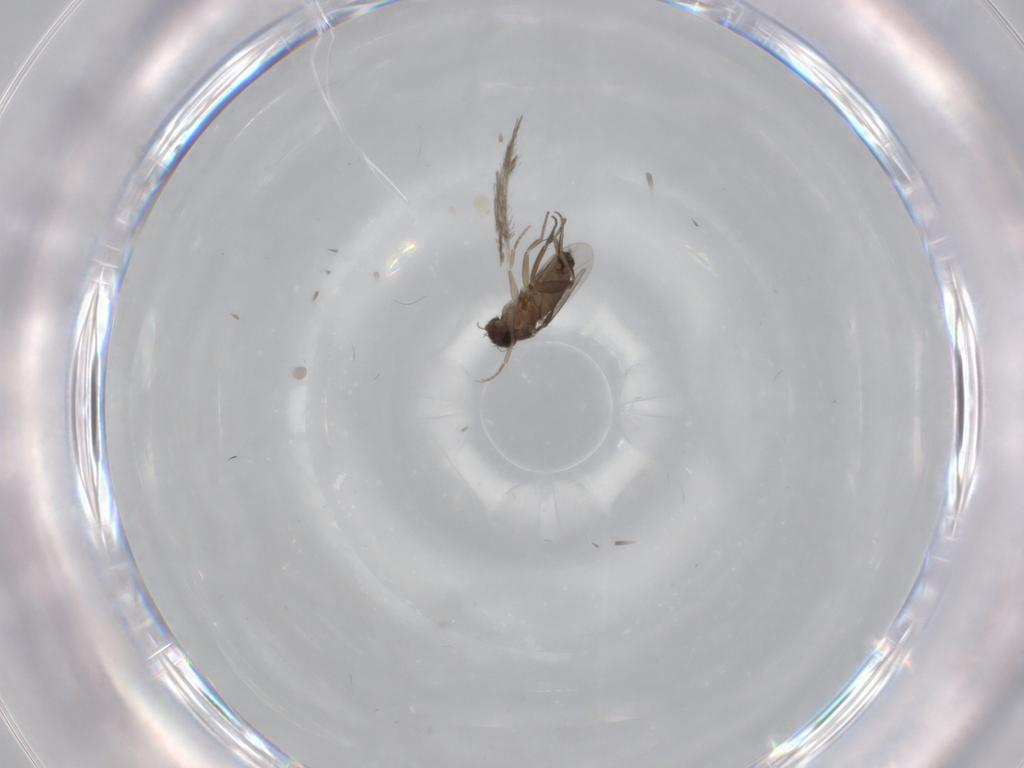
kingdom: Animalia
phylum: Arthropoda
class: Insecta
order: Diptera
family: Phoridae
